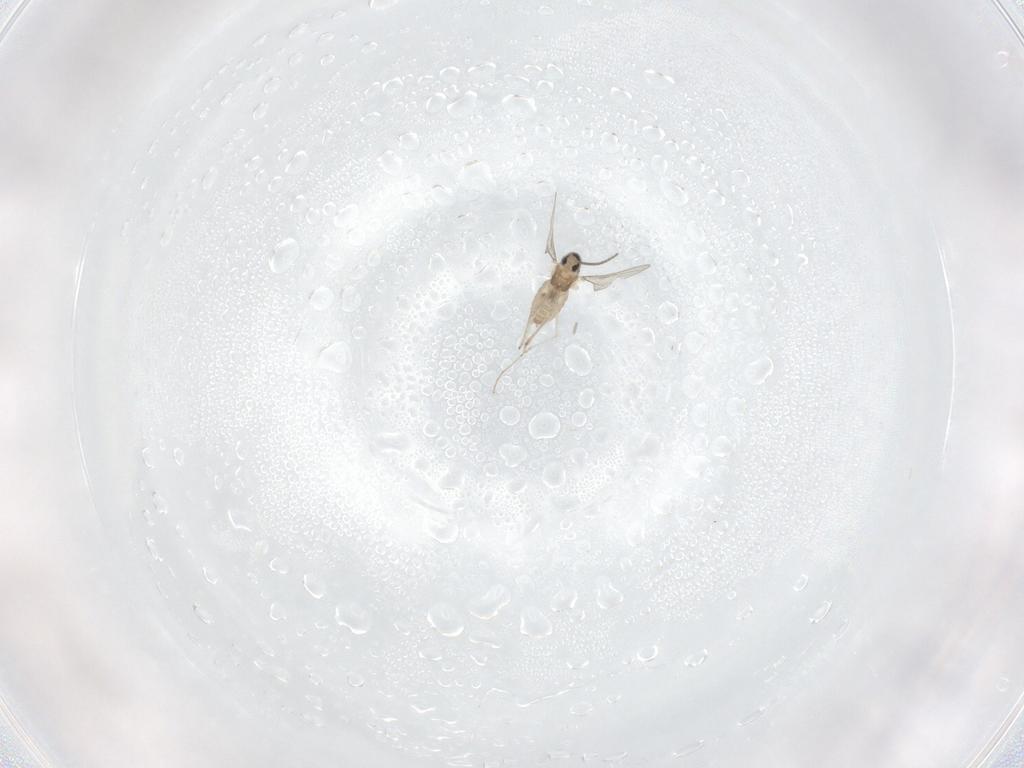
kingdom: Animalia
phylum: Arthropoda
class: Insecta
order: Diptera
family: Cecidomyiidae
